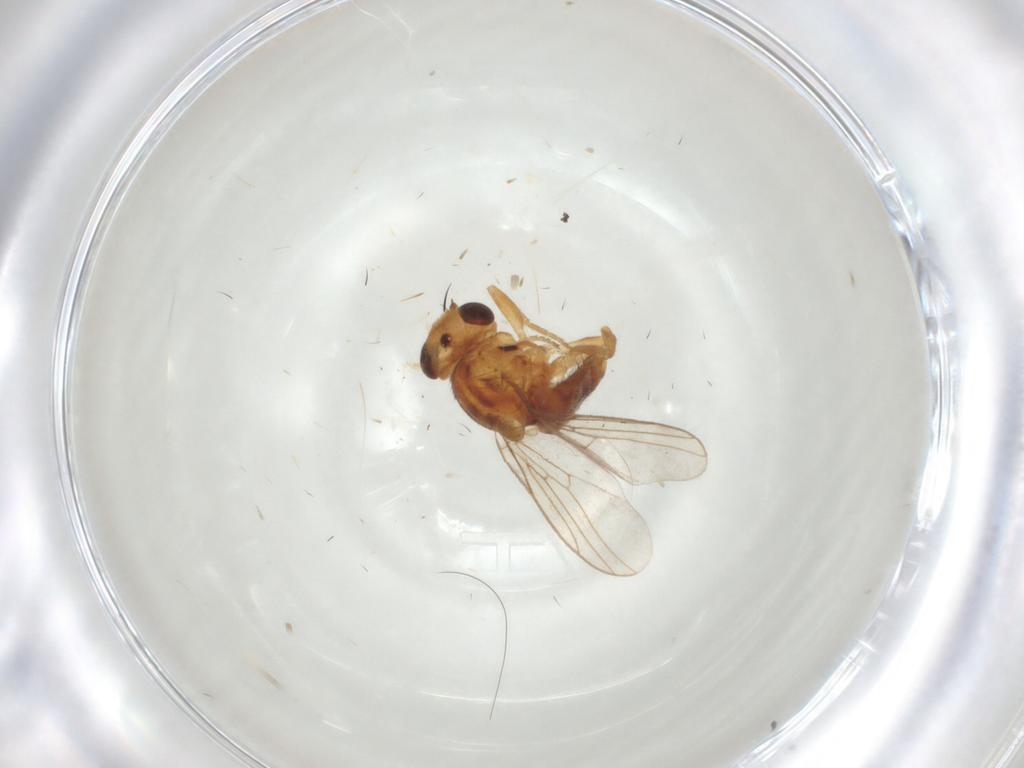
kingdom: Animalia
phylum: Arthropoda
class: Insecta
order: Diptera
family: Chloropidae
